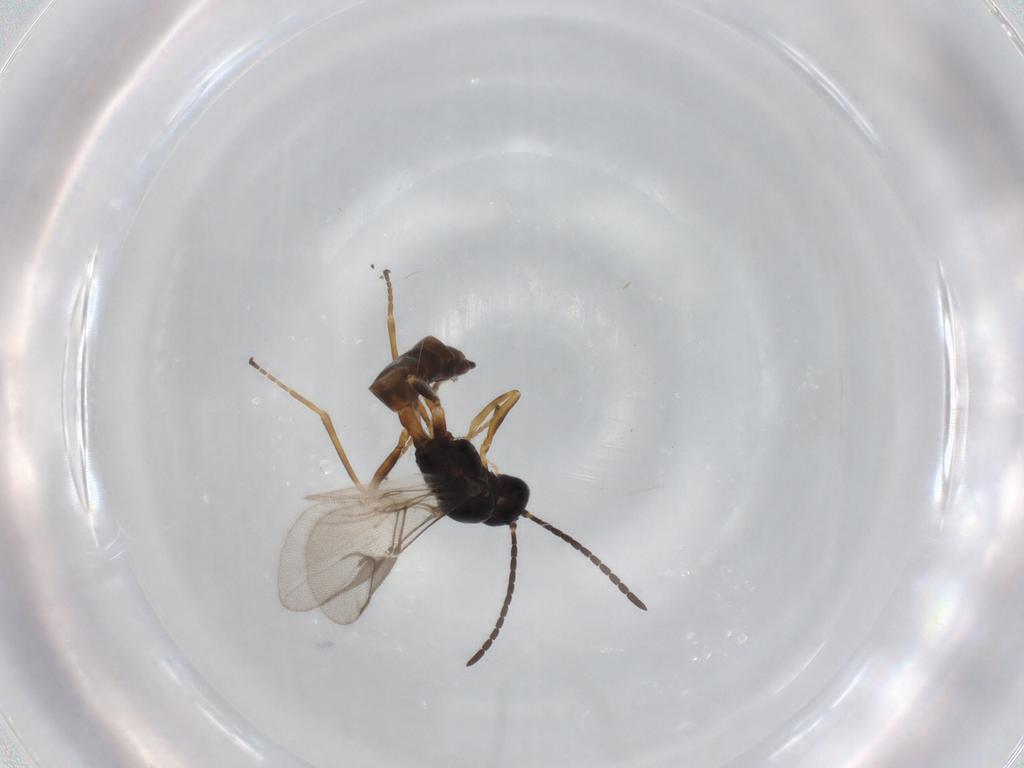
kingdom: Animalia
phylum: Arthropoda
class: Insecta
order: Hymenoptera
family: Braconidae
